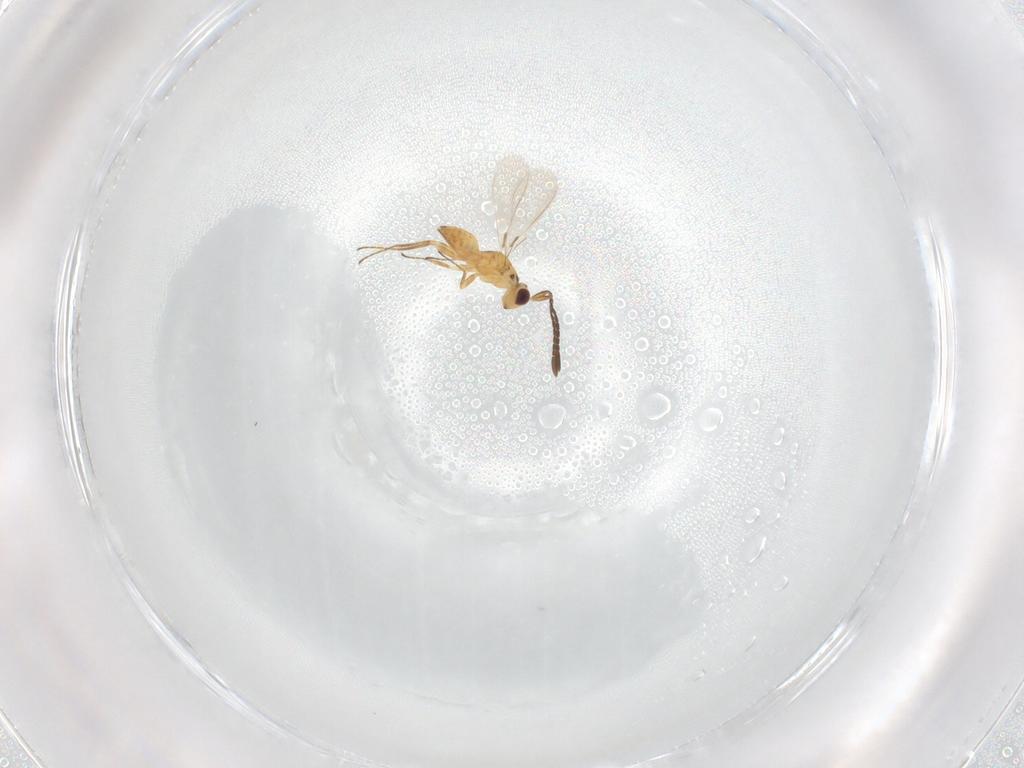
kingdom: Animalia
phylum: Arthropoda
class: Insecta
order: Hymenoptera
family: Mymaridae
